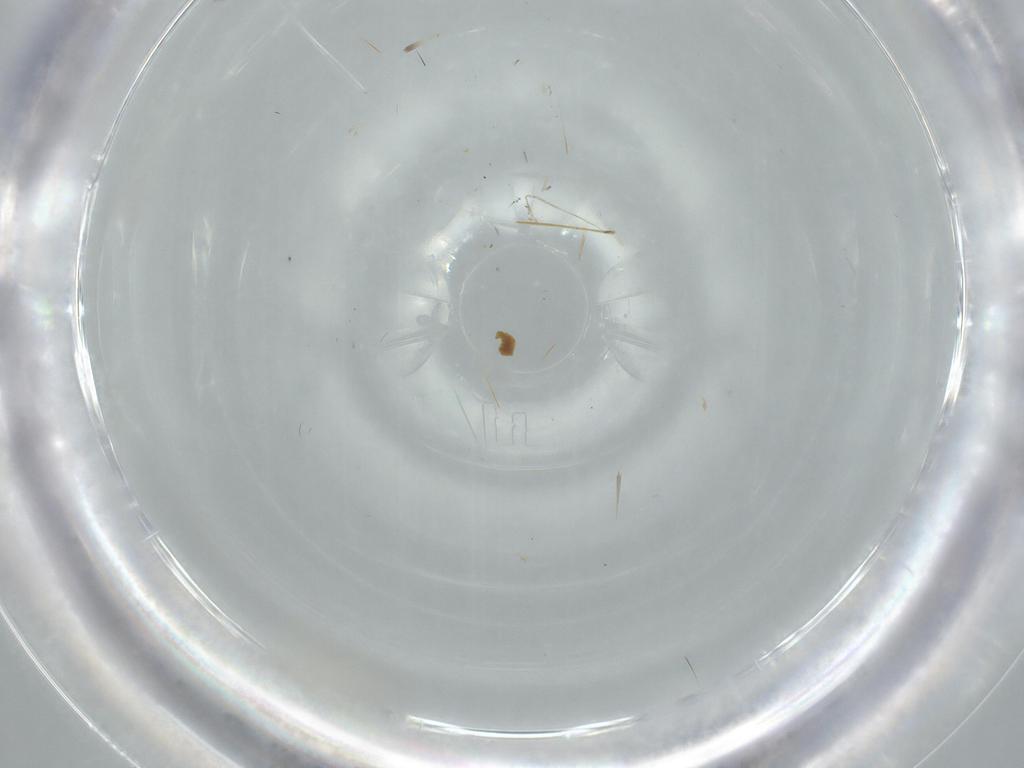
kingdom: Animalia
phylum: Arthropoda
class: Insecta
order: Diptera
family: Cecidomyiidae
